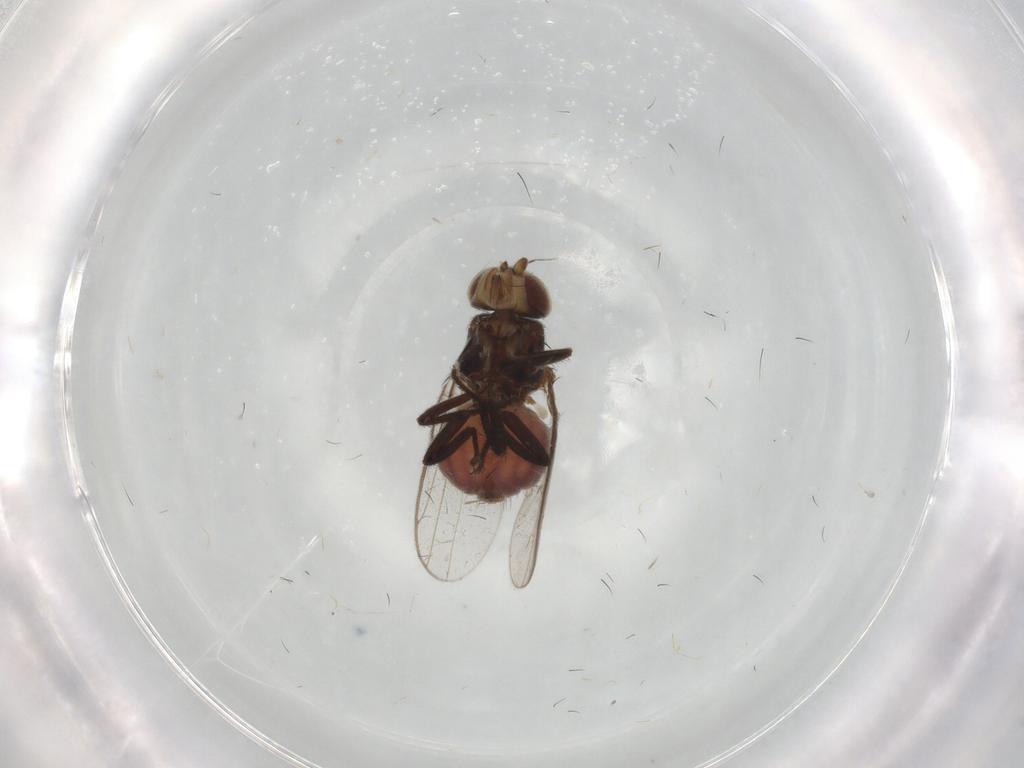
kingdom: Animalia
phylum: Arthropoda
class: Insecta
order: Diptera
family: Chloropidae
